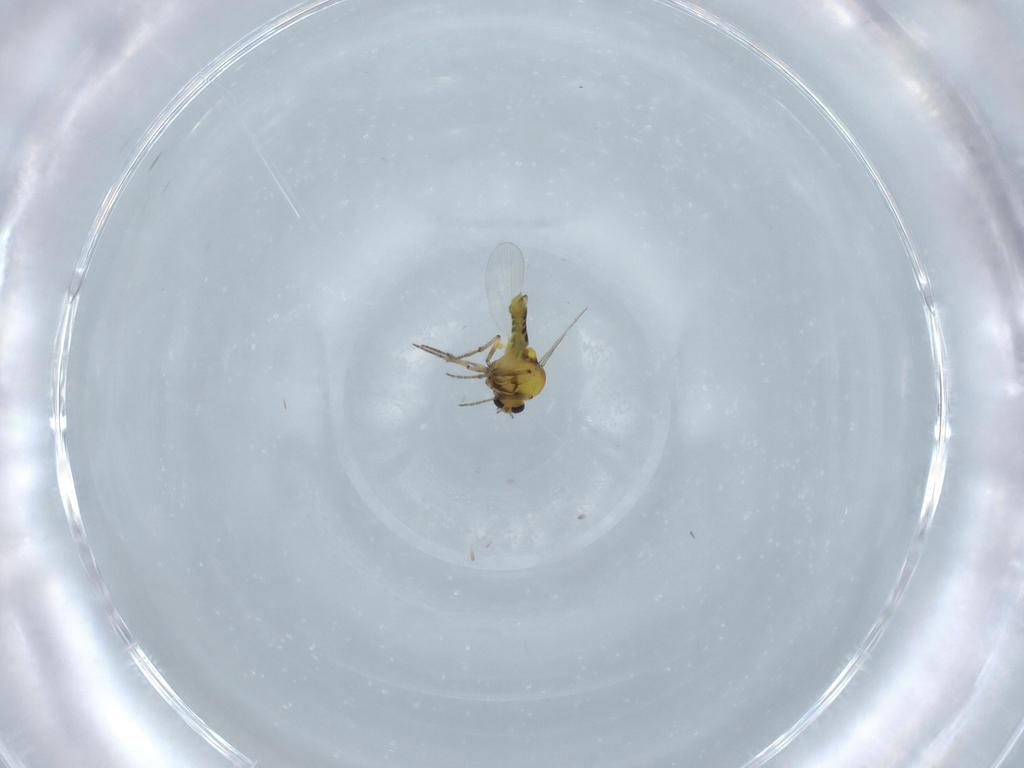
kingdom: Animalia
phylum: Arthropoda
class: Insecta
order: Diptera
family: Ceratopogonidae
